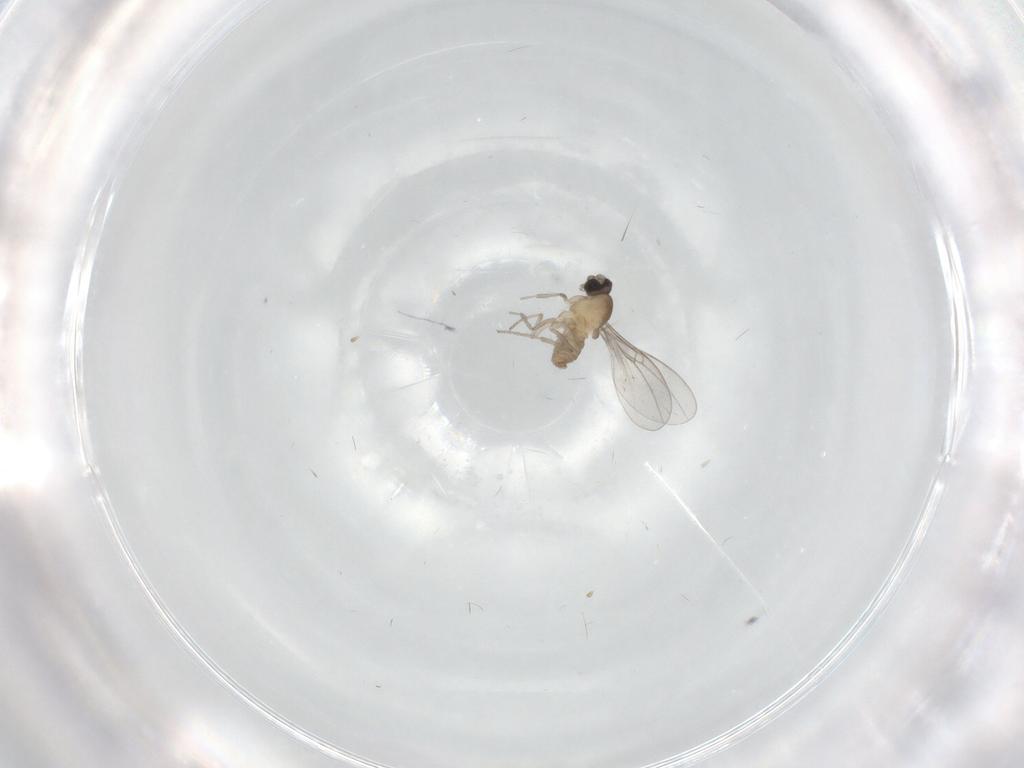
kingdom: Animalia
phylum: Arthropoda
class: Insecta
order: Diptera
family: Cecidomyiidae
